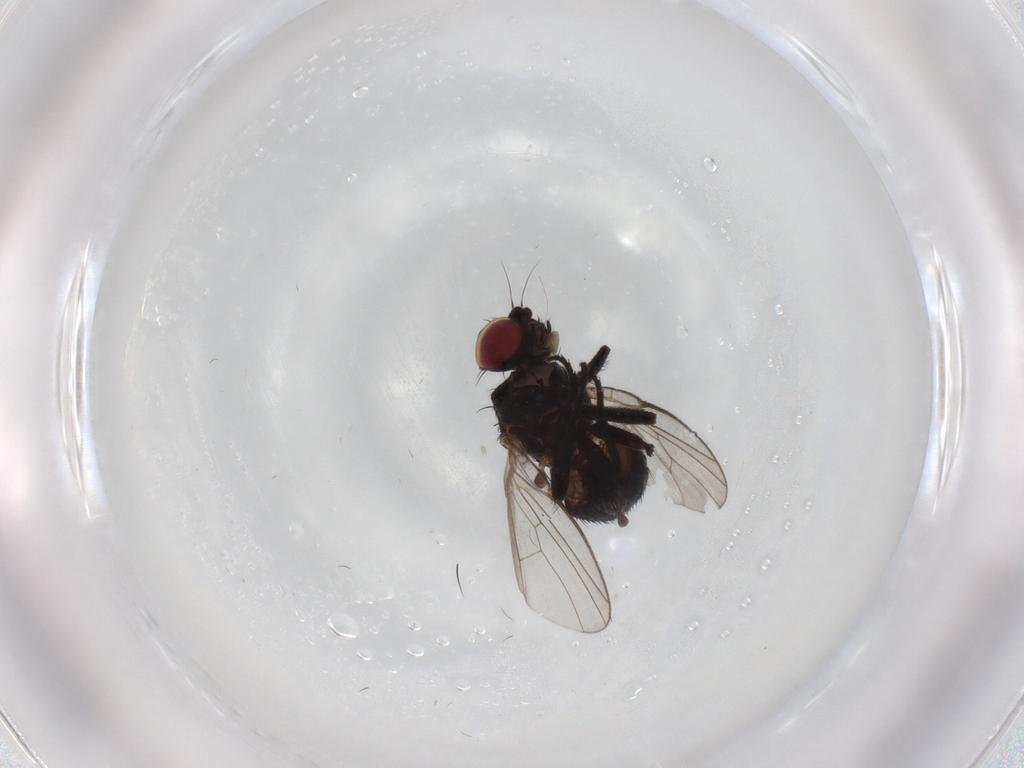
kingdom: Animalia
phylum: Arthropoda
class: Insecta
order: Diptera
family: Agromyzidae
